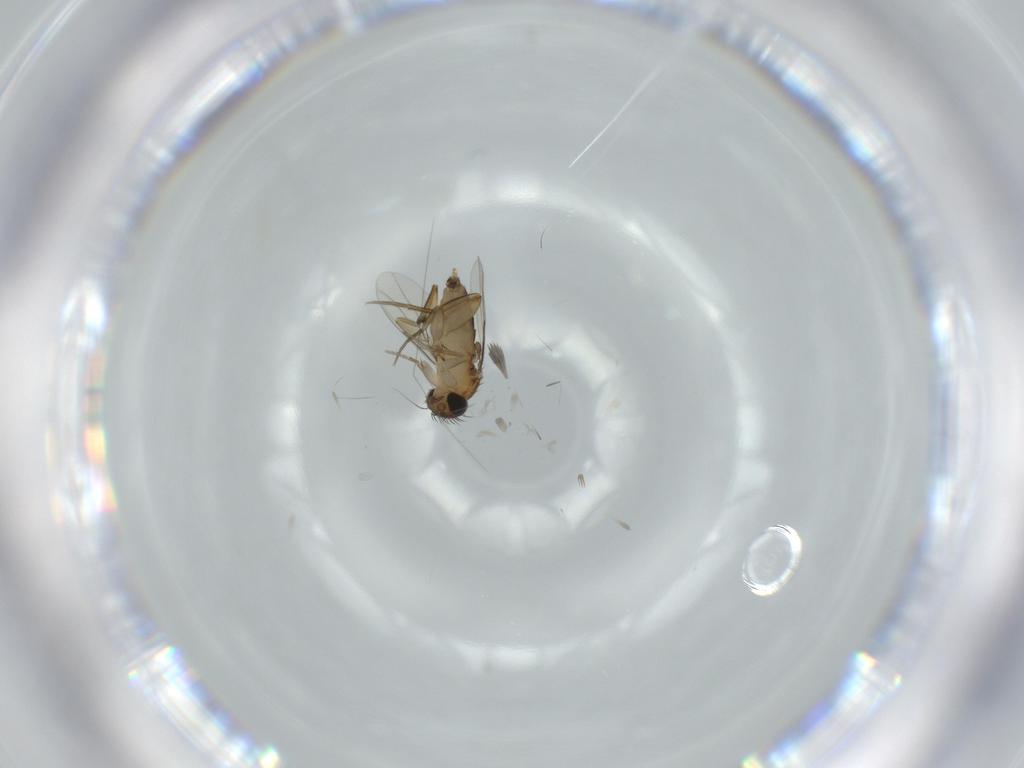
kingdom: Animalia
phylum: Arthropoda
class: Insecta
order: Diptera
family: Phoridae
